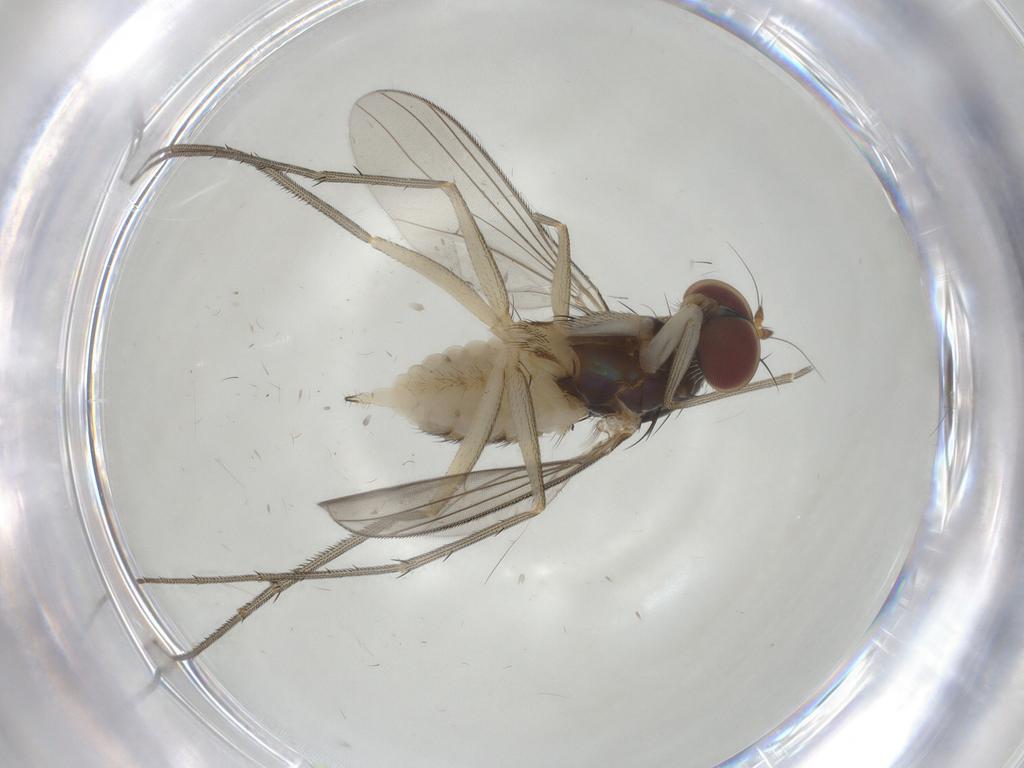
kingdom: Animalia
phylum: Arthropoda
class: Insecta
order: Diptera
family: Dolichopodidae
